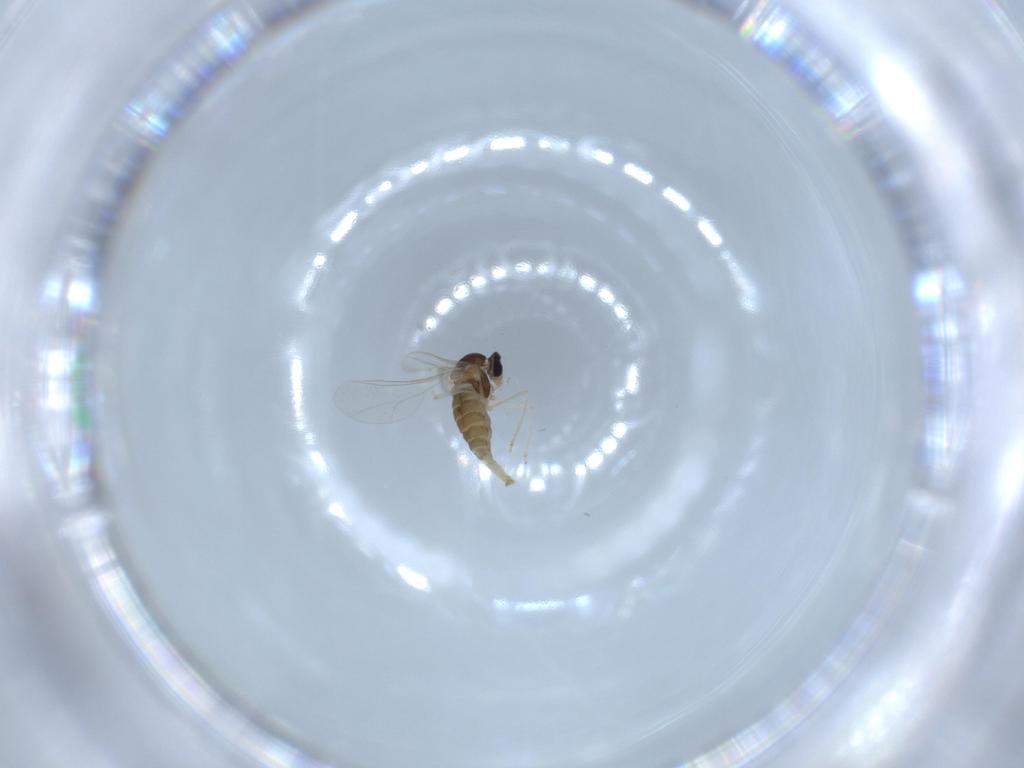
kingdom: Animalia
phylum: Arthropoda
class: Insecta
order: Diptera
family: Cecidomyiidae
